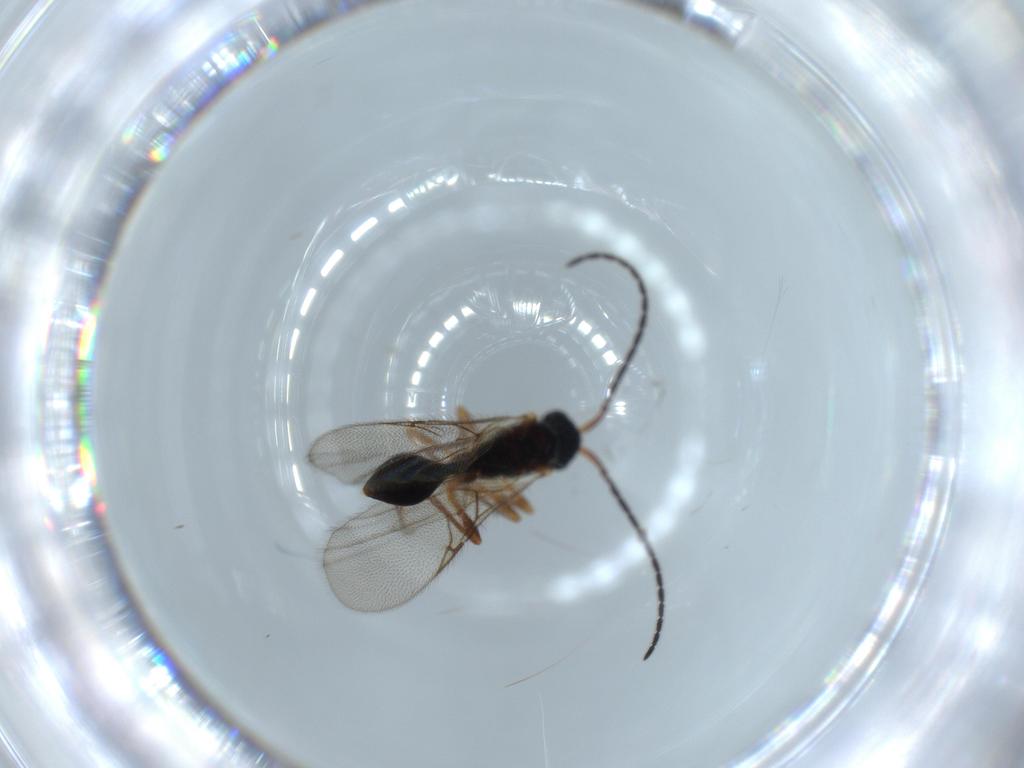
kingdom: Animalia
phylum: Arthropoda
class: Insecta
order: Hymenoptera
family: Diapriidae
